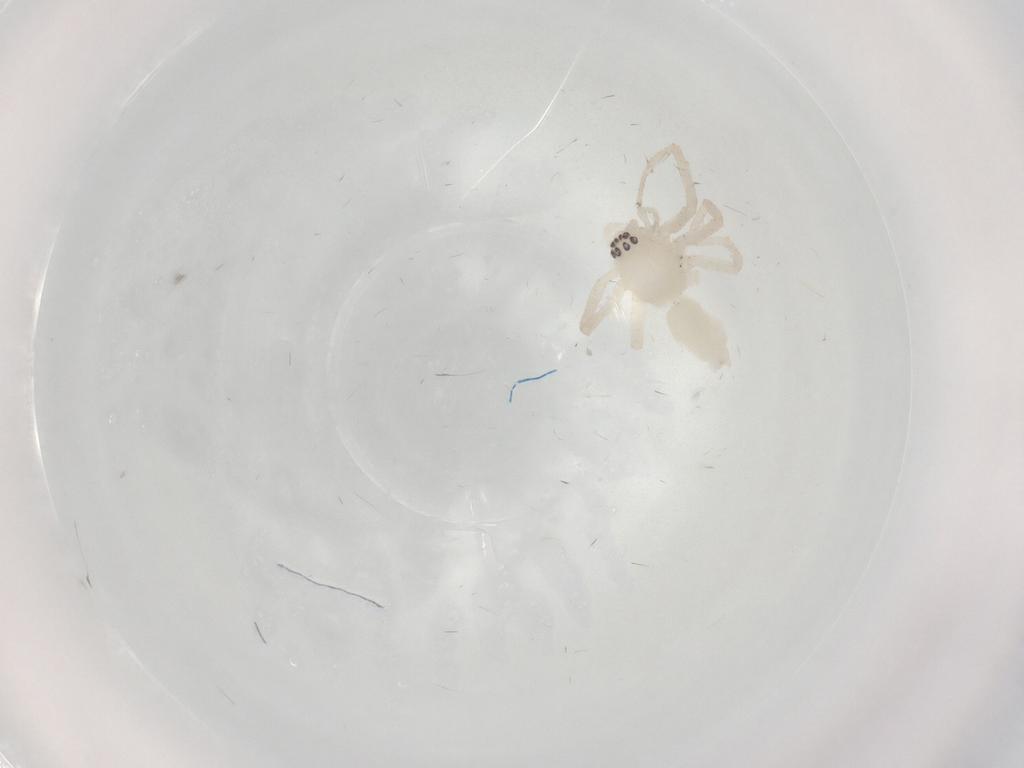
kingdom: Animalia
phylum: Arthropoda
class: Arachnida
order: Araneae
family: Anyphaenidae
